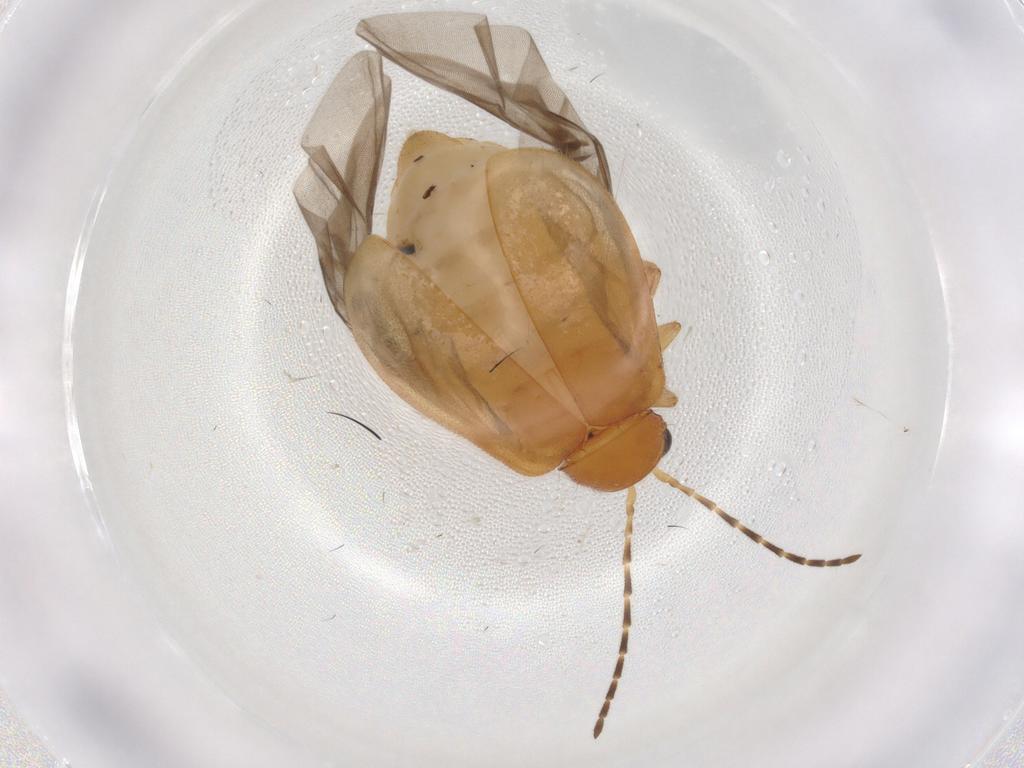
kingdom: Animalia
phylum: Arthropoda
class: Insecta
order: Coleoptera
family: Chrysomelidae
